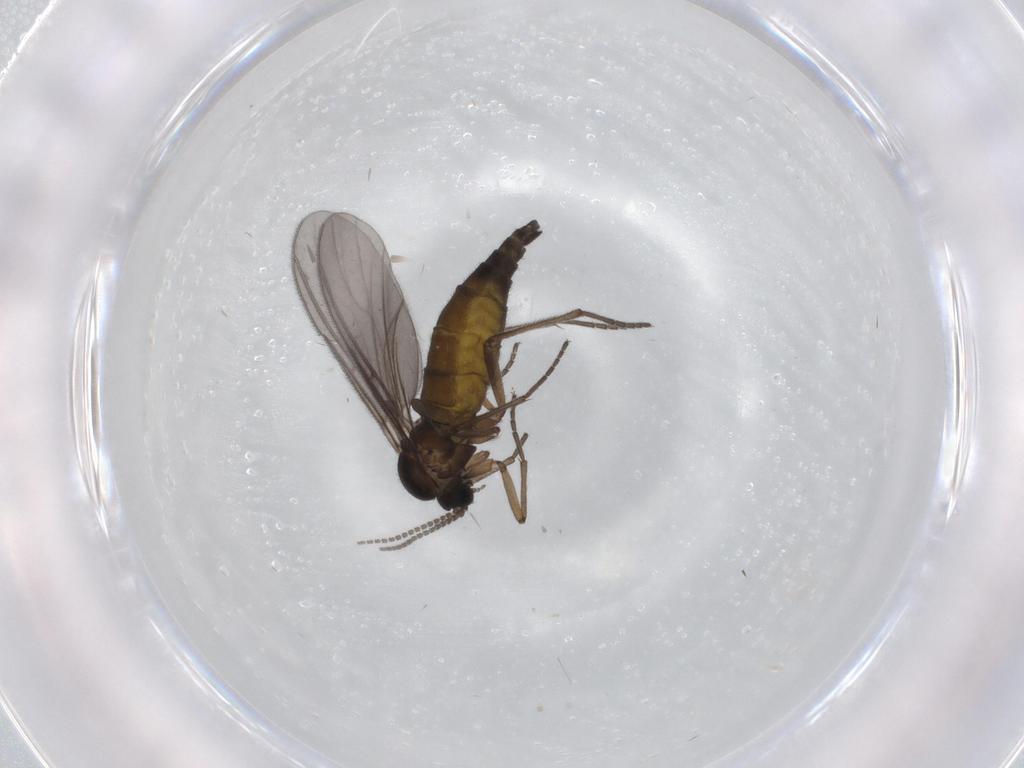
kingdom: Animalia
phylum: Arthropoda
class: Insecta
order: Diptera
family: Sciaridae
